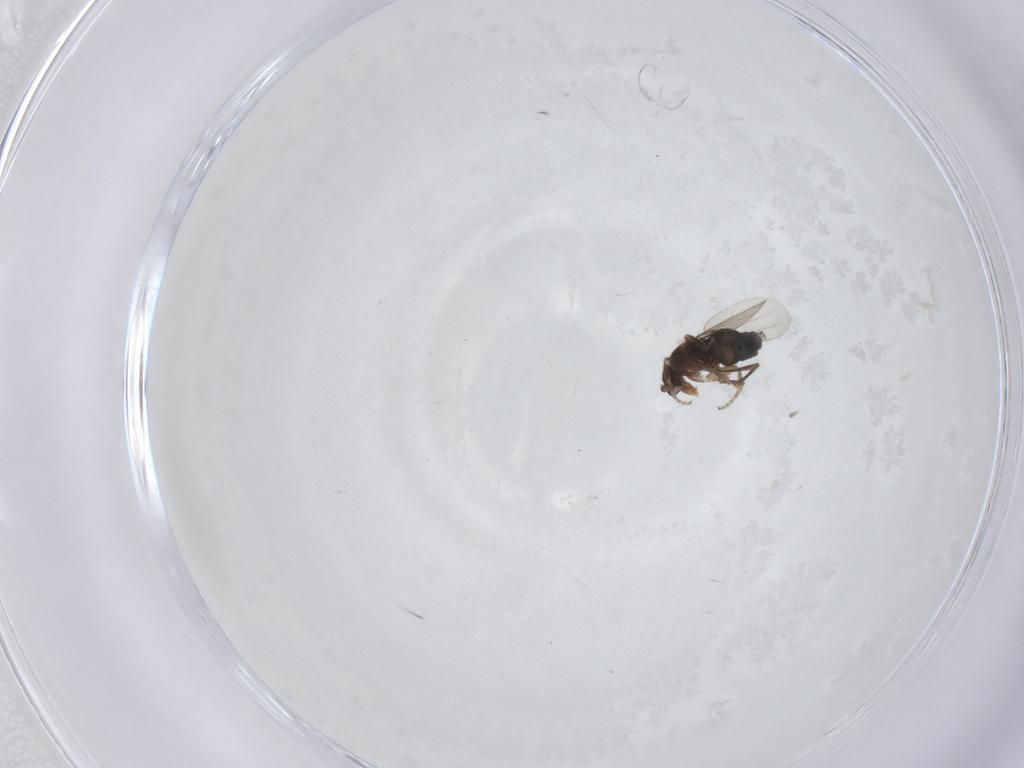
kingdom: Animalia
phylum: Arthropoda
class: Insecta
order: Diptera
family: Phoridae
